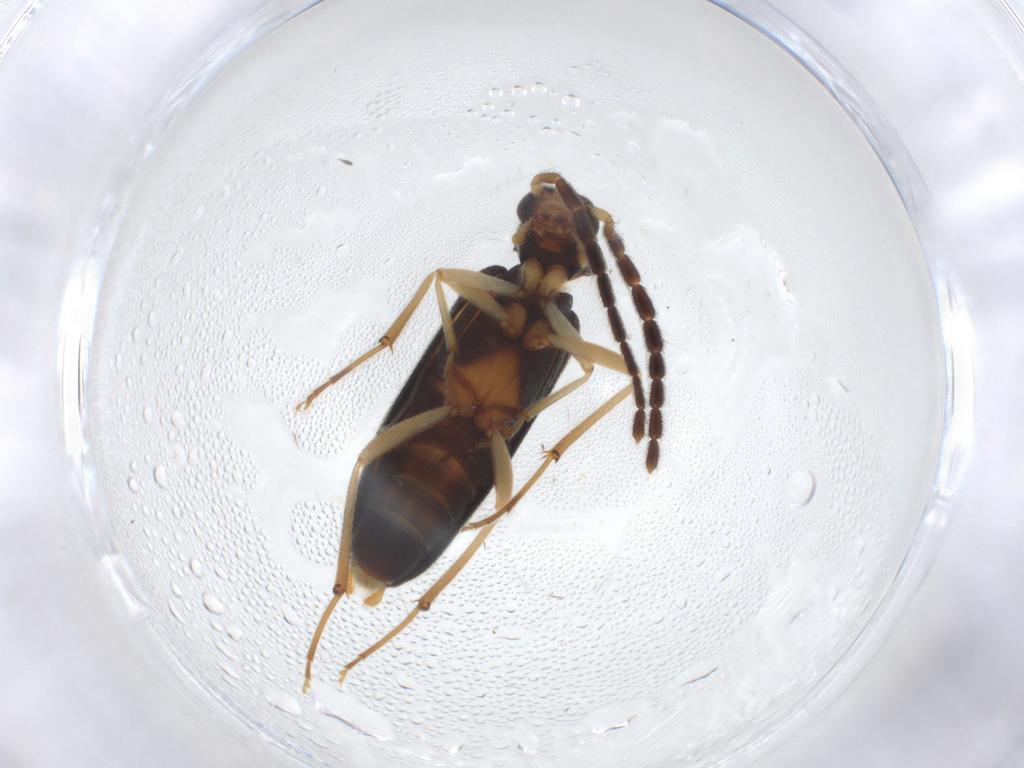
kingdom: Animalia
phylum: Arthropoda
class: Insecta
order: Coleoptera
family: Melandryidae
